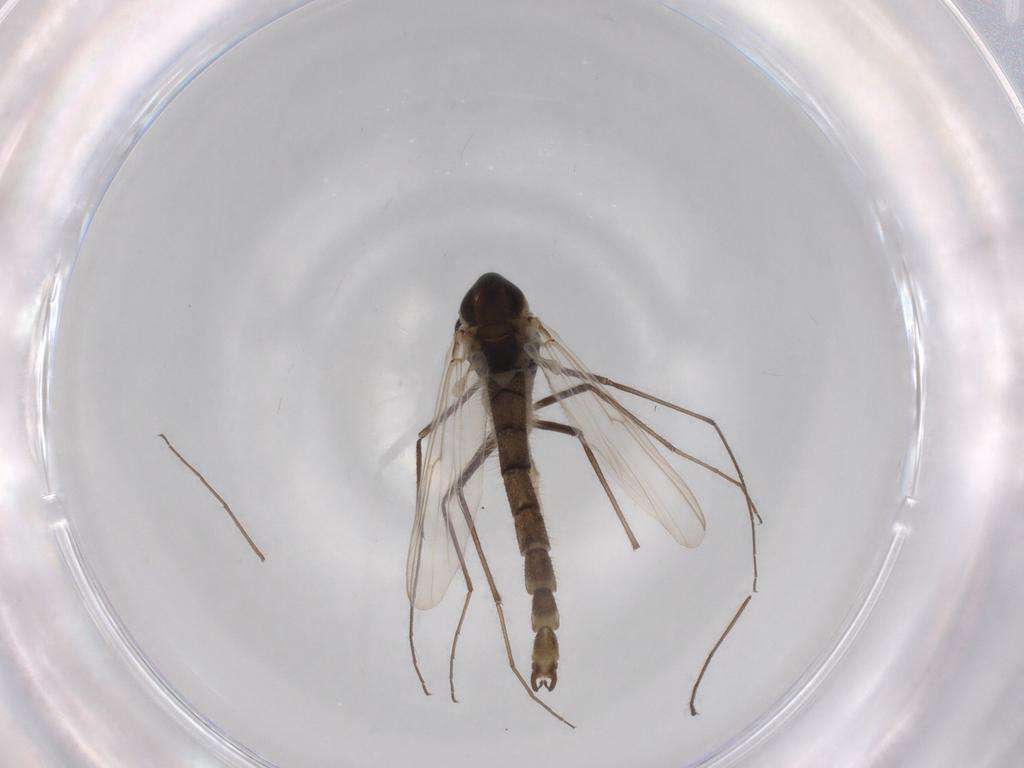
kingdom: Animalia
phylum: Arthropoda
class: Insecta
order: Diptera
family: Chironomidae
